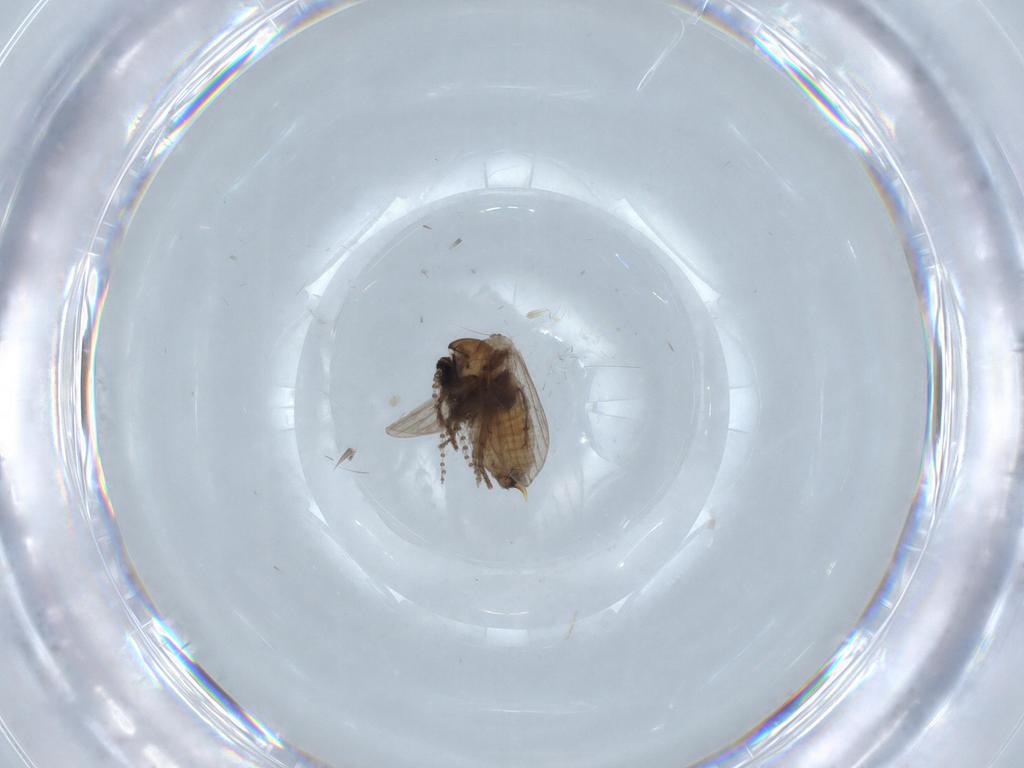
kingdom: Animalia
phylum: Arthropoda
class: Insecta
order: Diptera
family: Psychodidae
